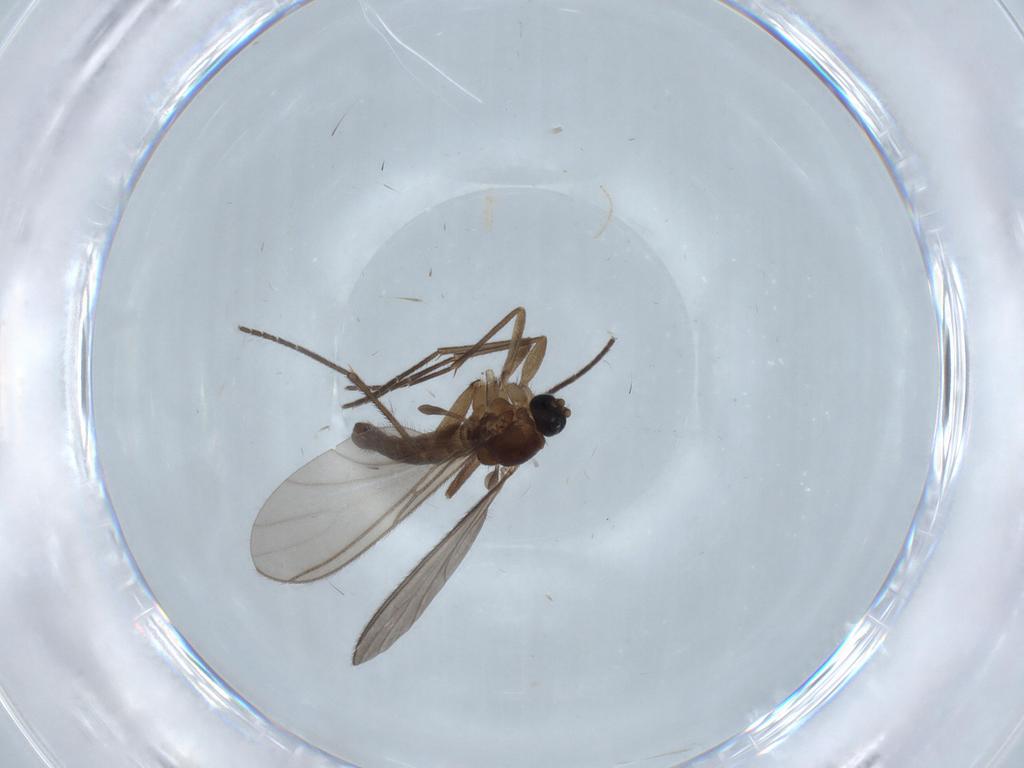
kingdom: Animalia
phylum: Arthropoda
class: Insecta
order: Diptera
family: Cecidomyiidae
